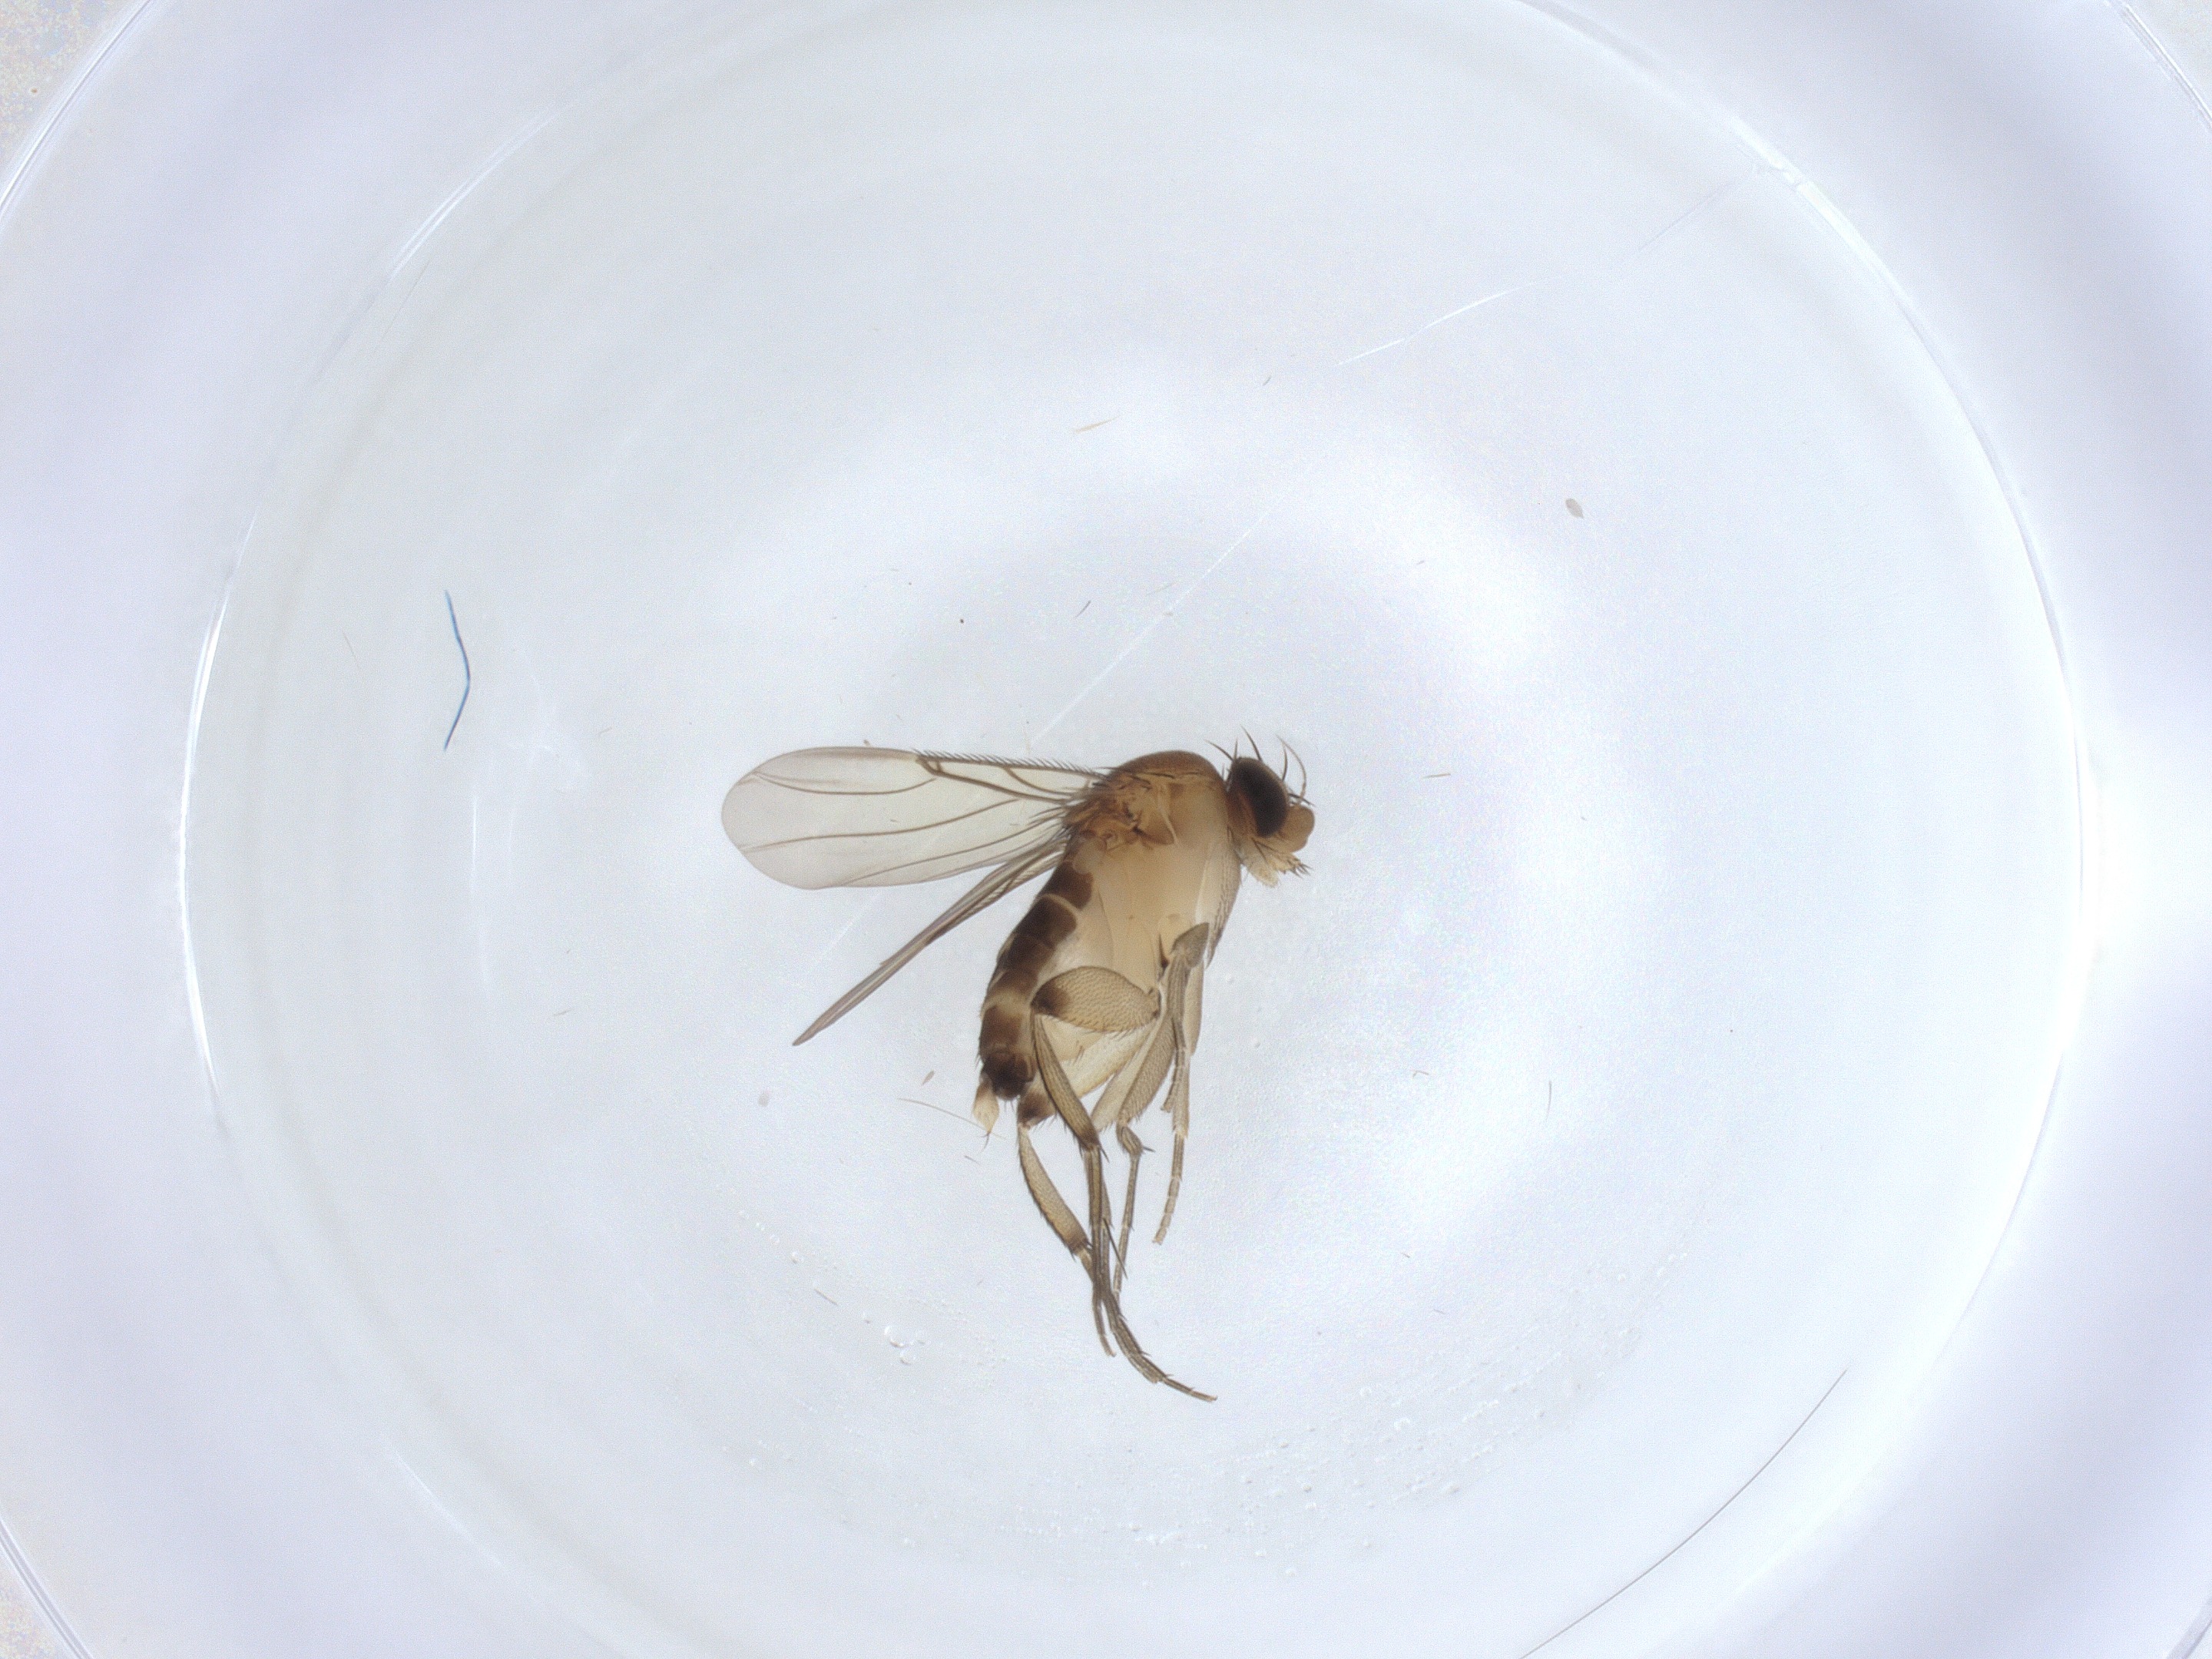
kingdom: Animalia
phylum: Arthropoda
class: Insecta
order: Diptera
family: Phoridae
